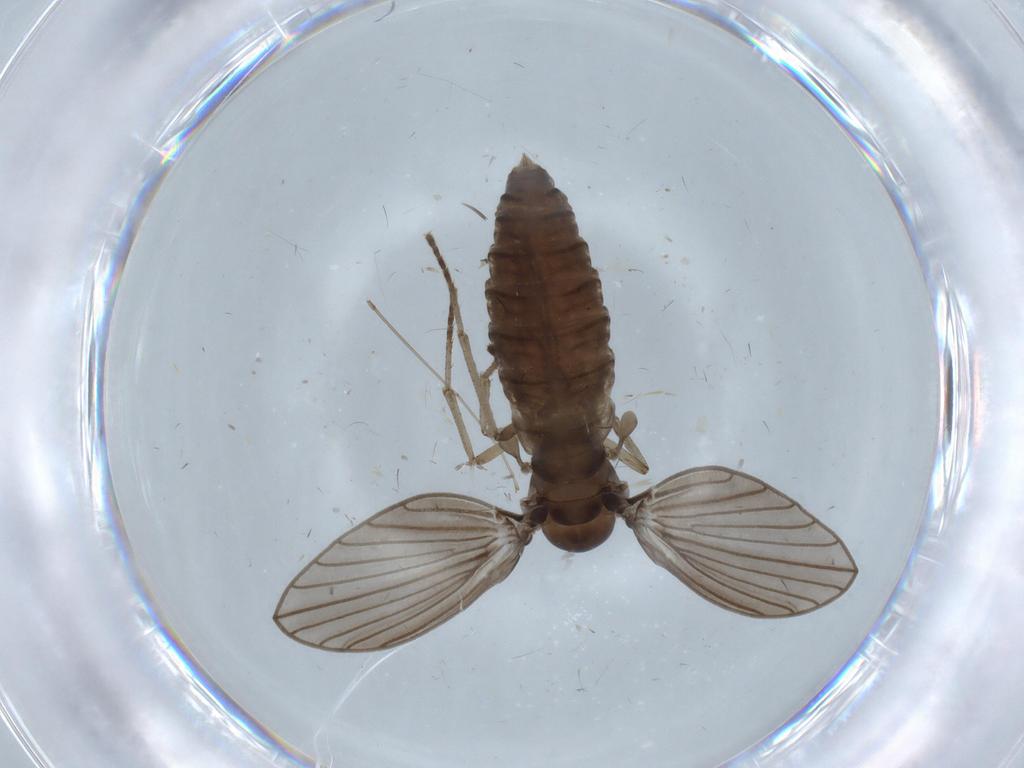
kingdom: Animalia
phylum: Arthropoda
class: Insecta
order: Diptera
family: Psychodidae
